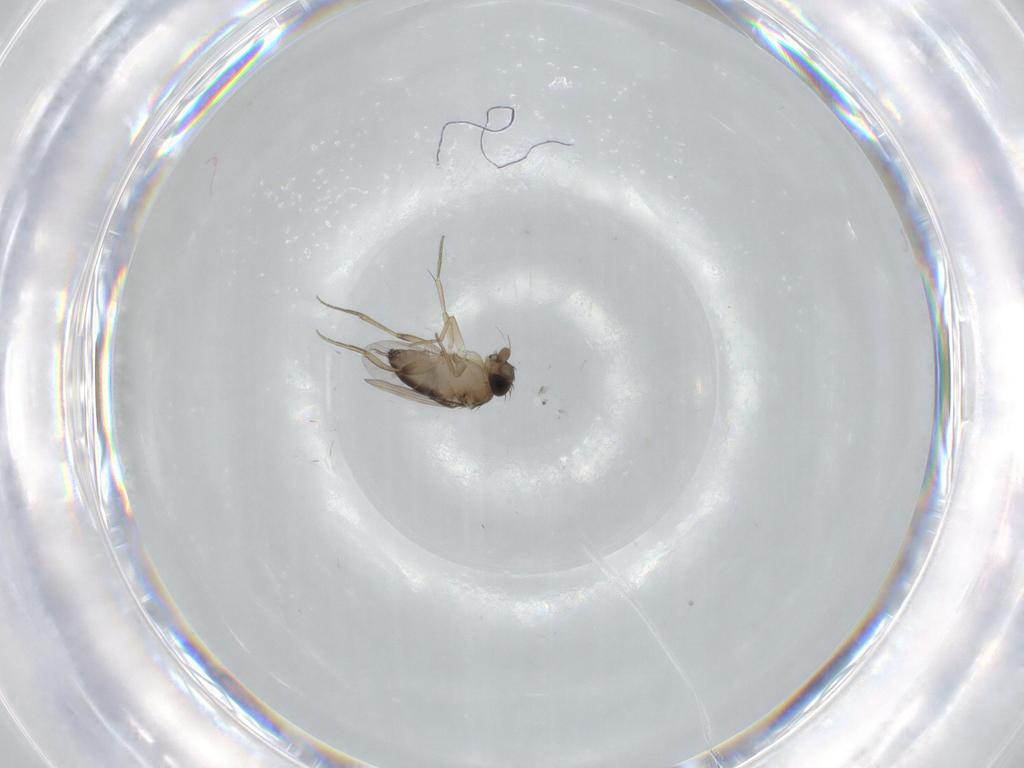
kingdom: Animalia
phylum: Arthropoda
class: Insecta
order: Diptera
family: Phoridae
